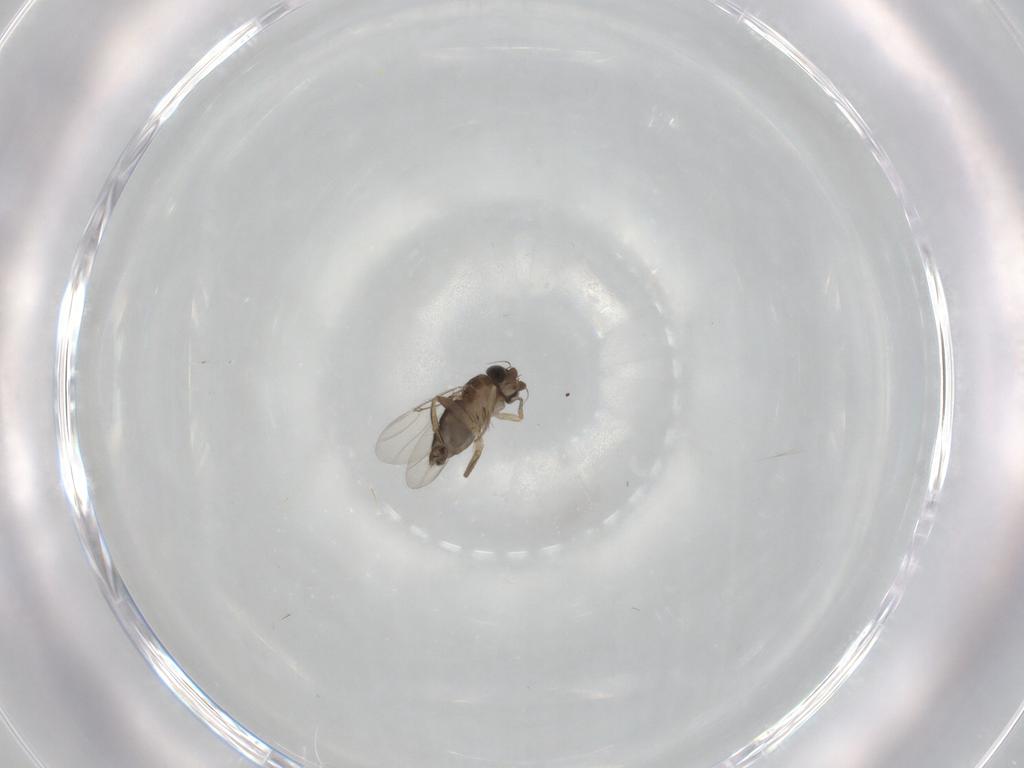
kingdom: Animalia
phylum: Arthropoda
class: Insecta
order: Diptera
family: Phoridae
